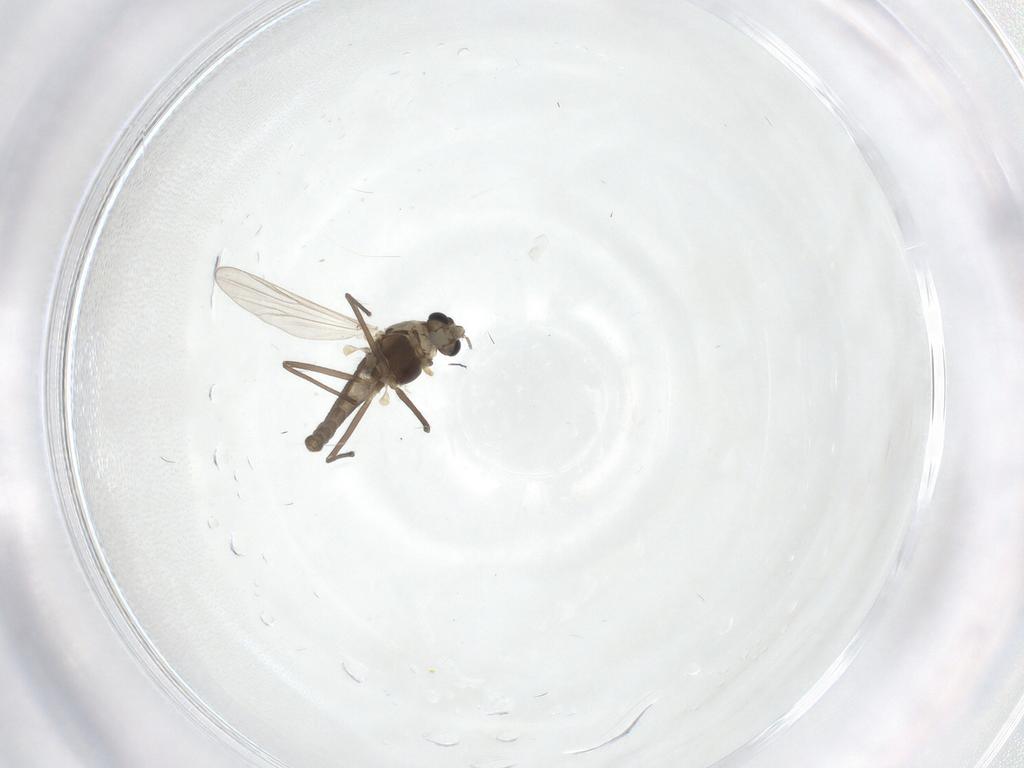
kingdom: Animalia
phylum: Arthropoda
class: Insecta
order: Diptera
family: Chironomidae
